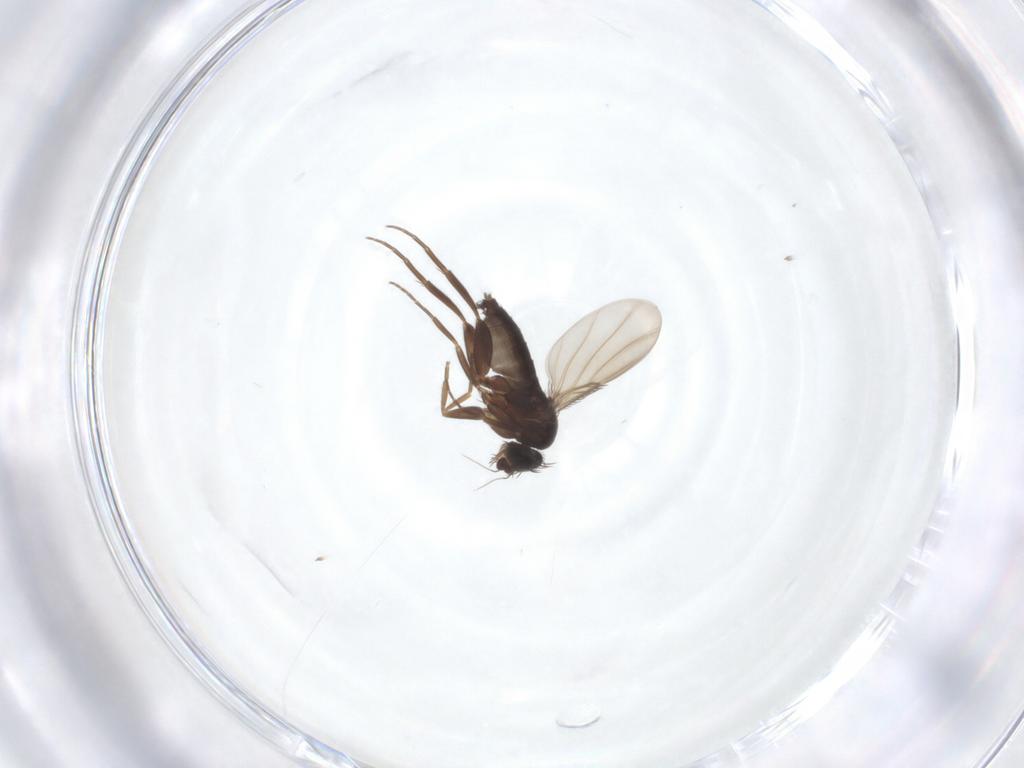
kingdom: Animalia
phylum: Arthropoda
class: Insecta
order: Diptera
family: Phoridae
